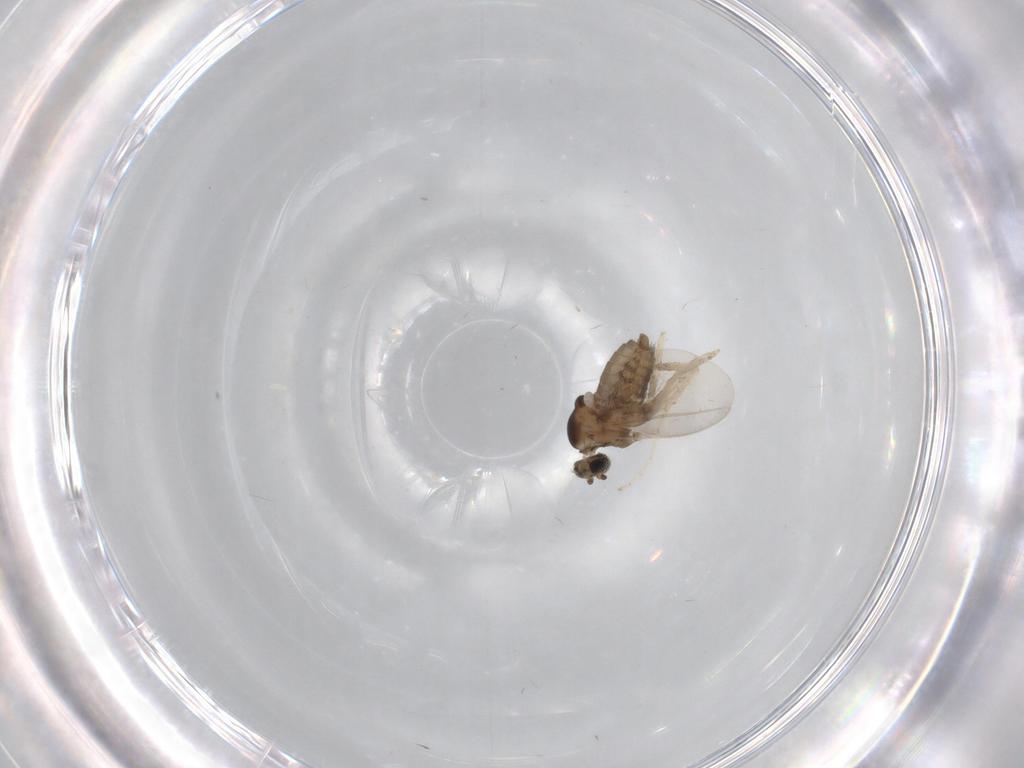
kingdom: Animalia
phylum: Arthropoda
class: Insecta
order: Diptera
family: Cecidomyiidae
